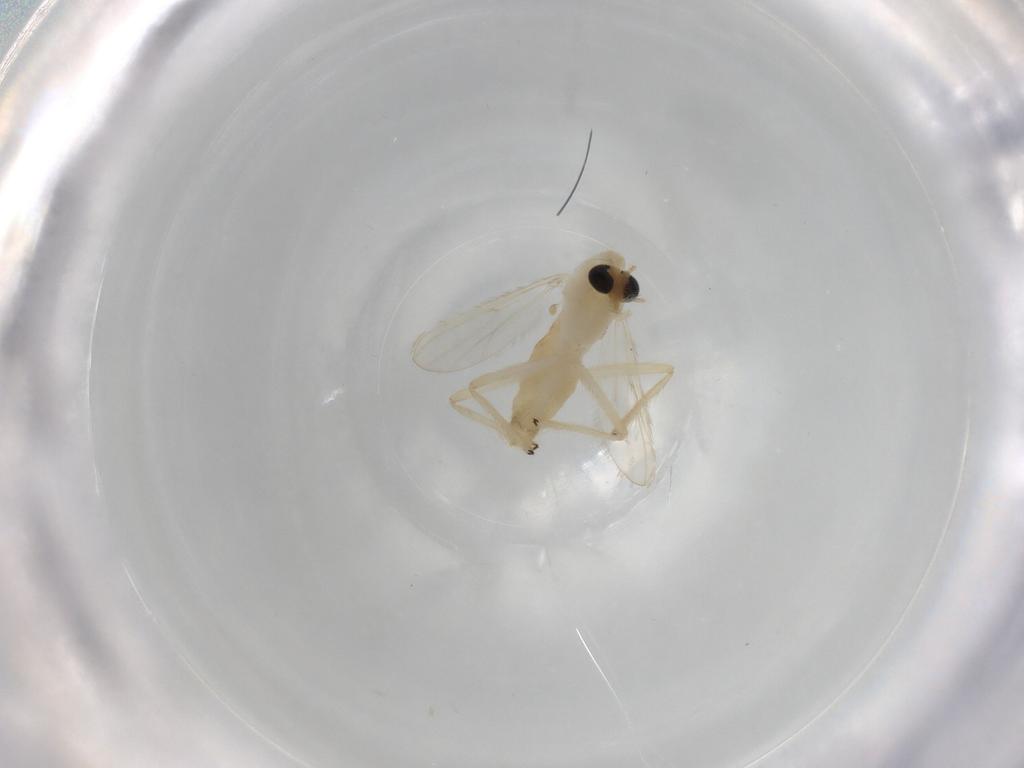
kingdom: Animalia
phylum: Arthropoda
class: Insecta
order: Diptera
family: Chironomidae
